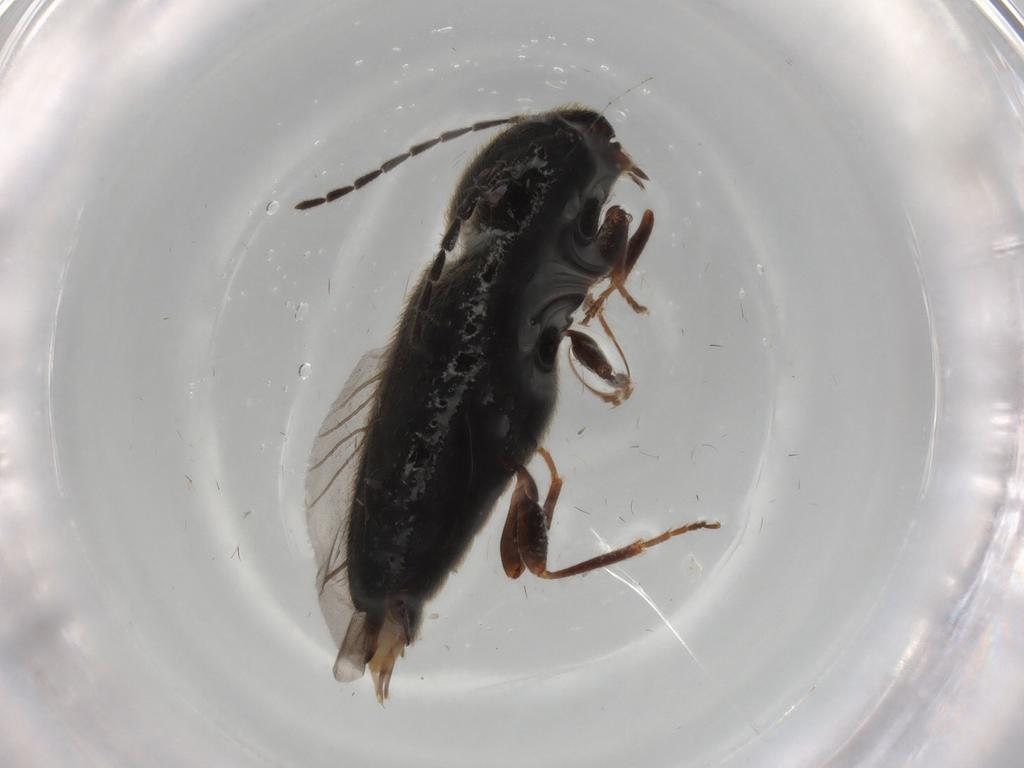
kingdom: Animalia
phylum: Arthropoda
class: Insecta
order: Coleoptera
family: Elateridae
